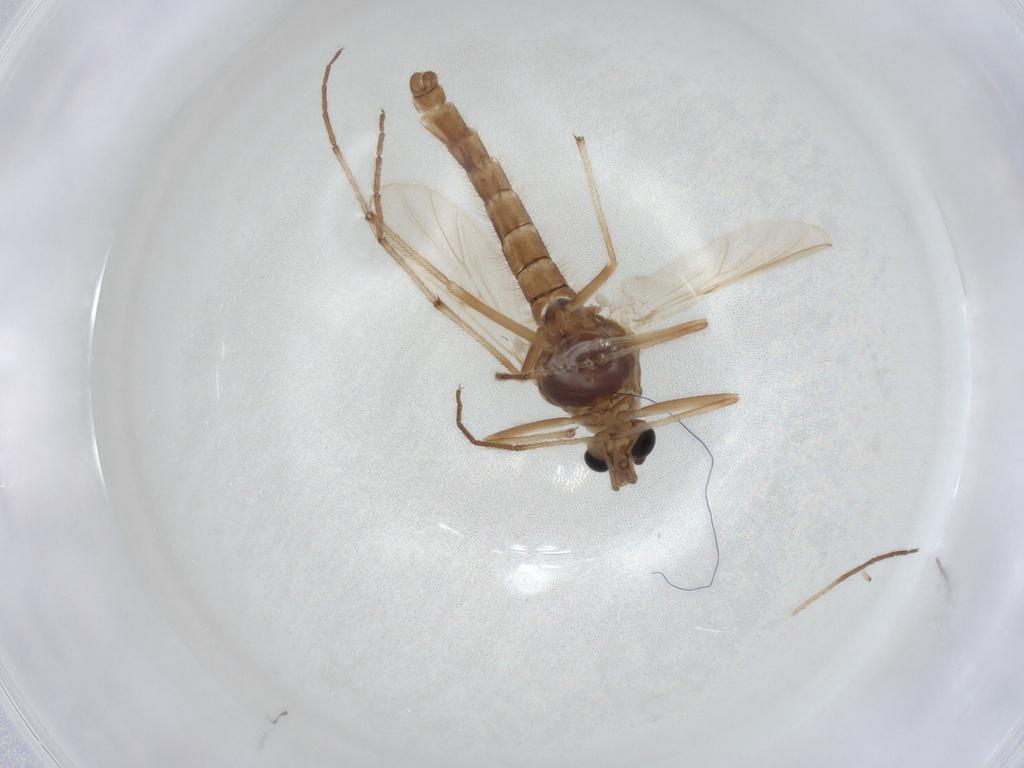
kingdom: Animalia
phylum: Arthropoda
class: Insecta
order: Diptera
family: Chironomidae
